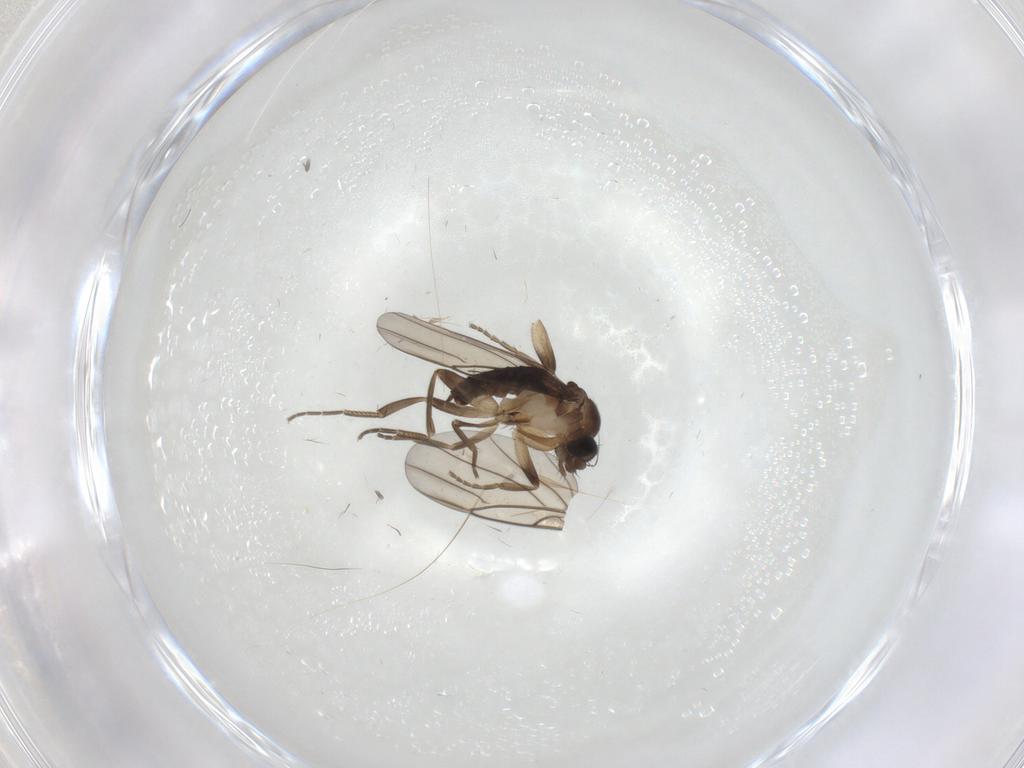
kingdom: Animalia
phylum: Arthropoda
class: Insecta
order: Diptera
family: Phoridae
